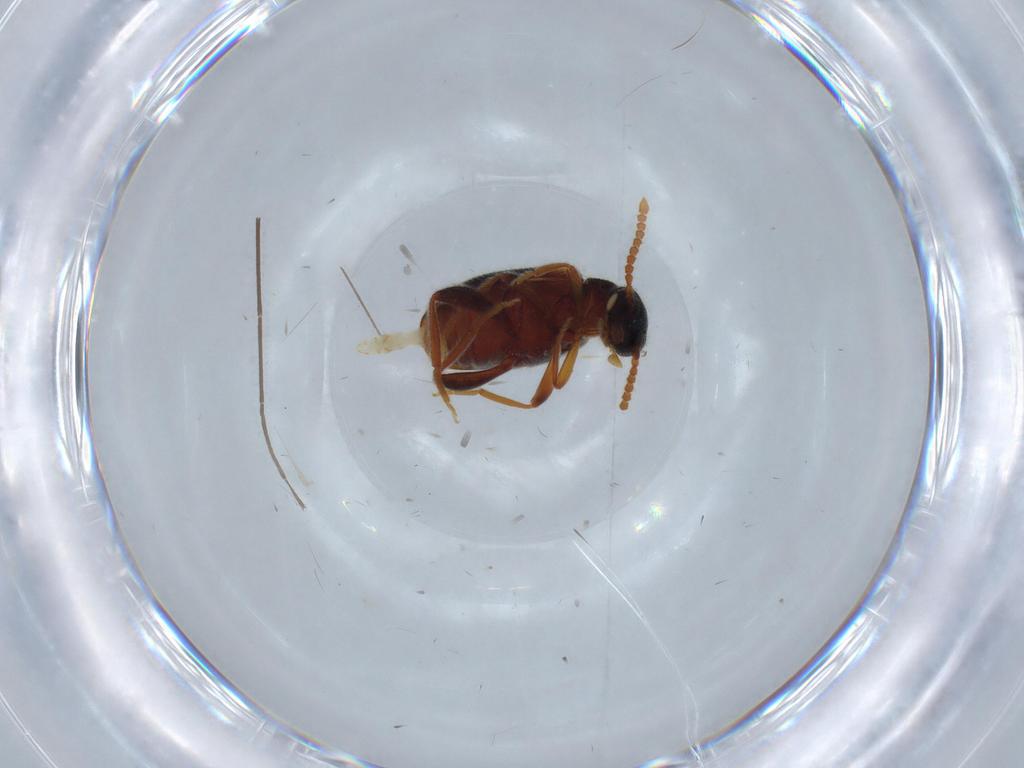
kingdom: Animalia
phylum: Arthropoda
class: Insecta
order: Coleoptera
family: Aderidae
